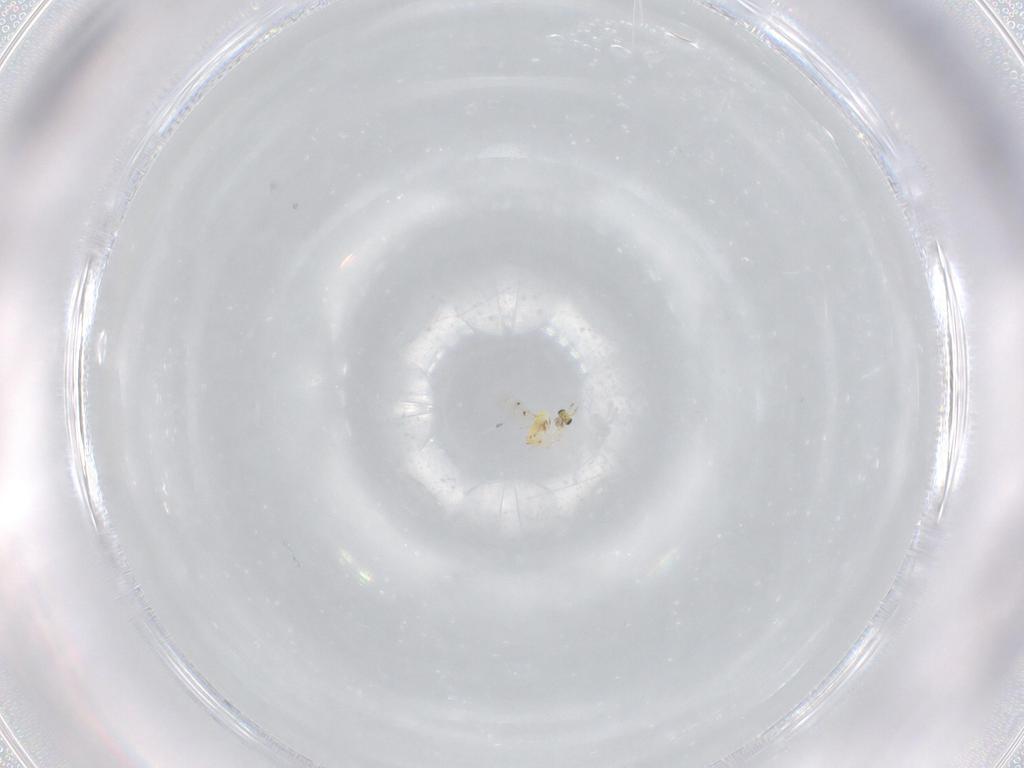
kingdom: Animalia
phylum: Arthropoda
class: Insecta
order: Hymenoptera
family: Trichogrammatidae
